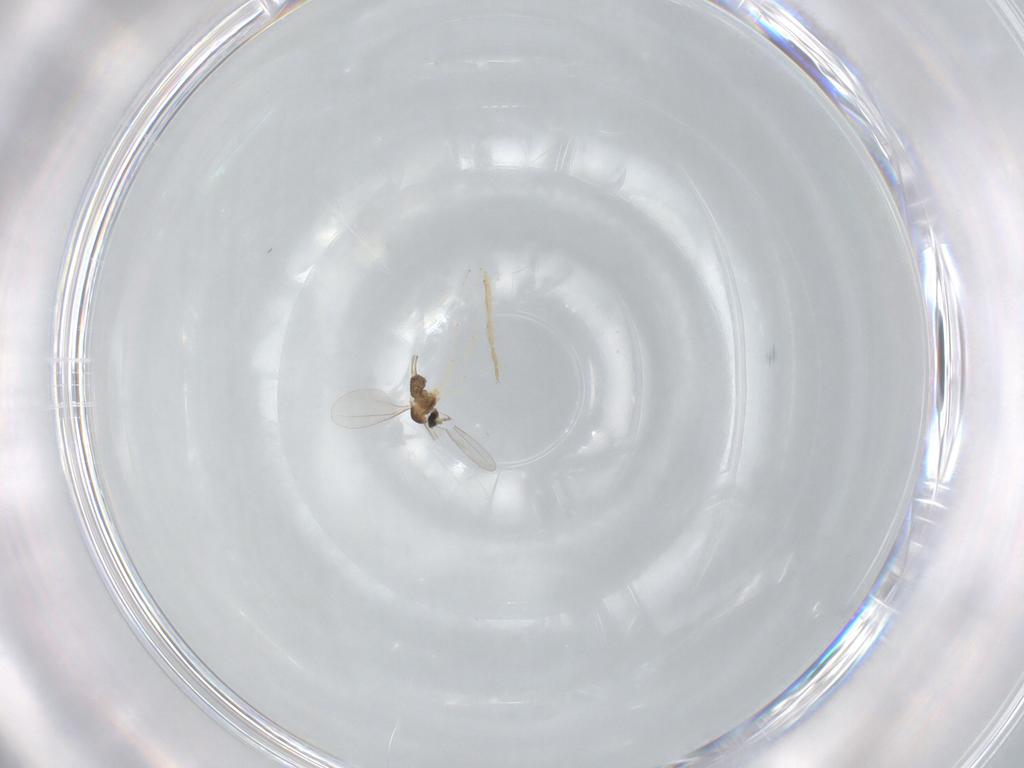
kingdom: Animalia
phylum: Arthropoda
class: Insecta
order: Diptera
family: Cecidomyiidae
